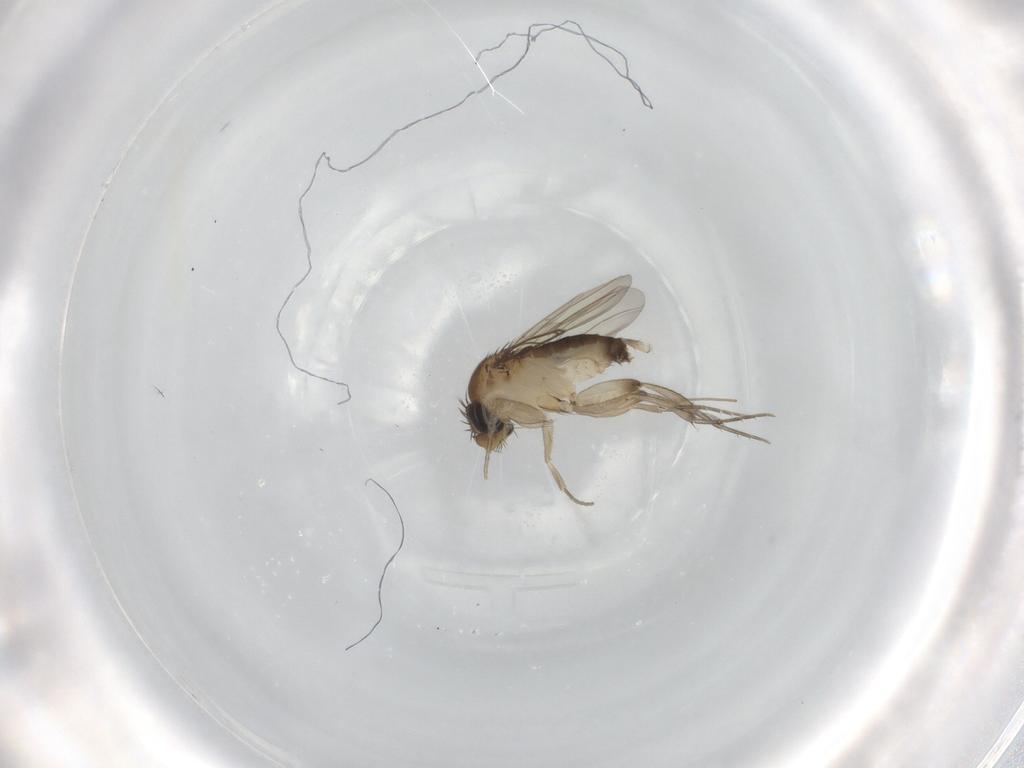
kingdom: Animalia
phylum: Arthropoda
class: Insecta
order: Diptera
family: Phoridae
